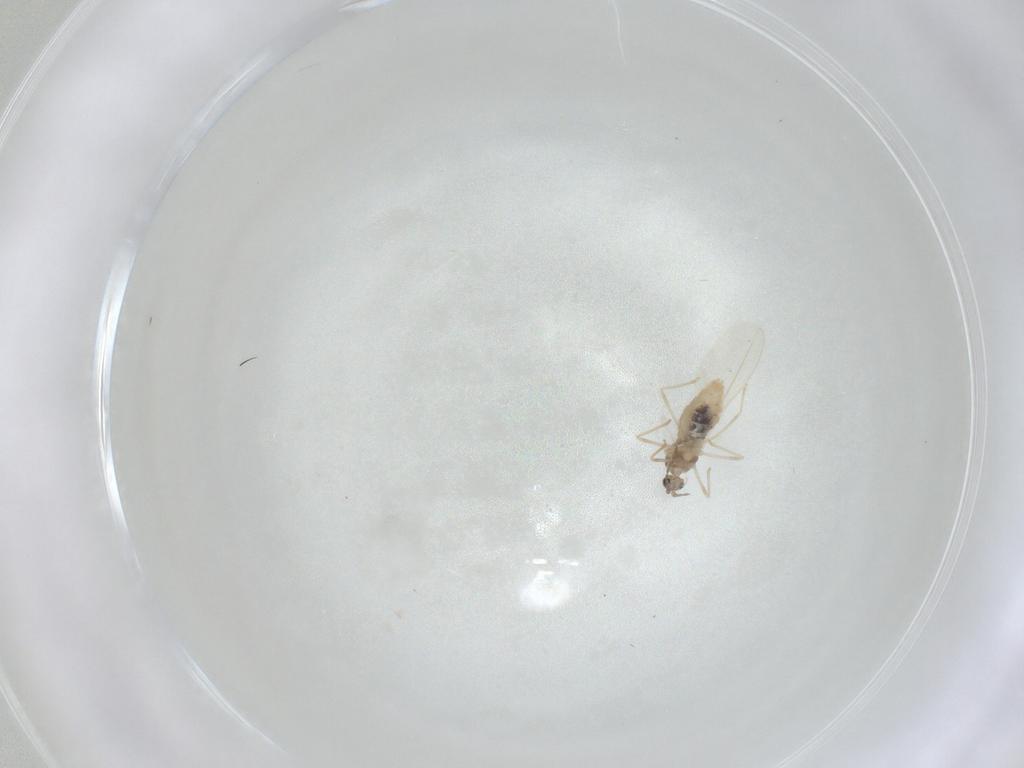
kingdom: Animalia
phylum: Arthropoda
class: Insecta
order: Diptera
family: Cecidomyiidae
